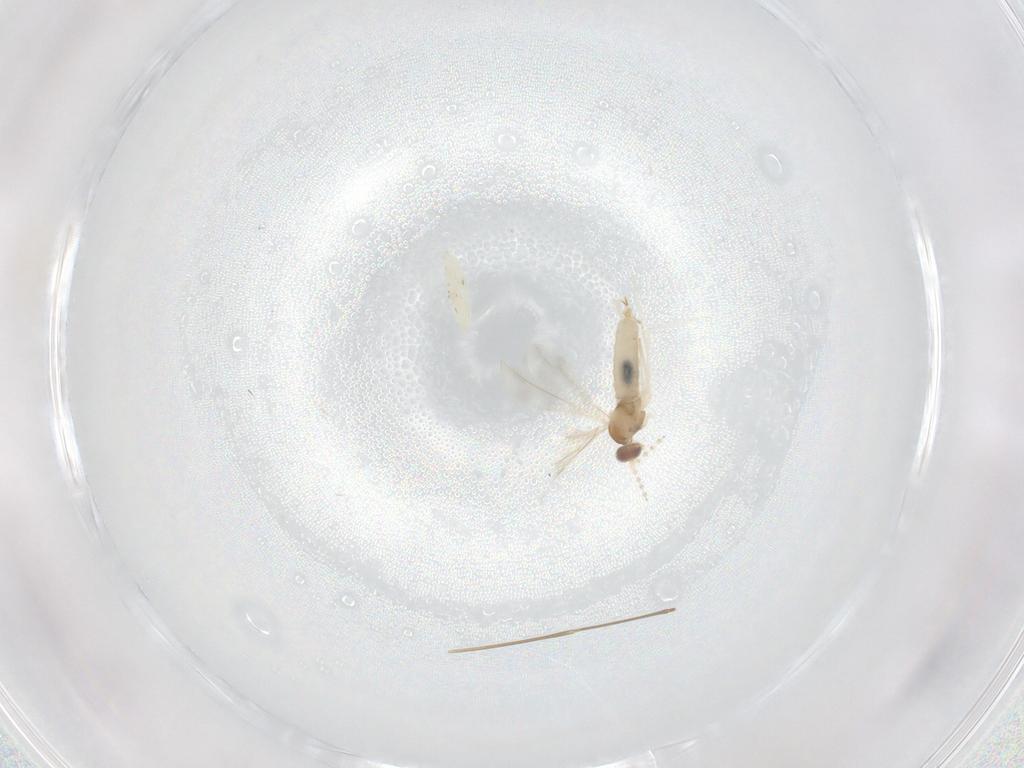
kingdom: Animalia
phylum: Arthropoda
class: Insecta
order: Diptera
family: Cecidomyiidae
